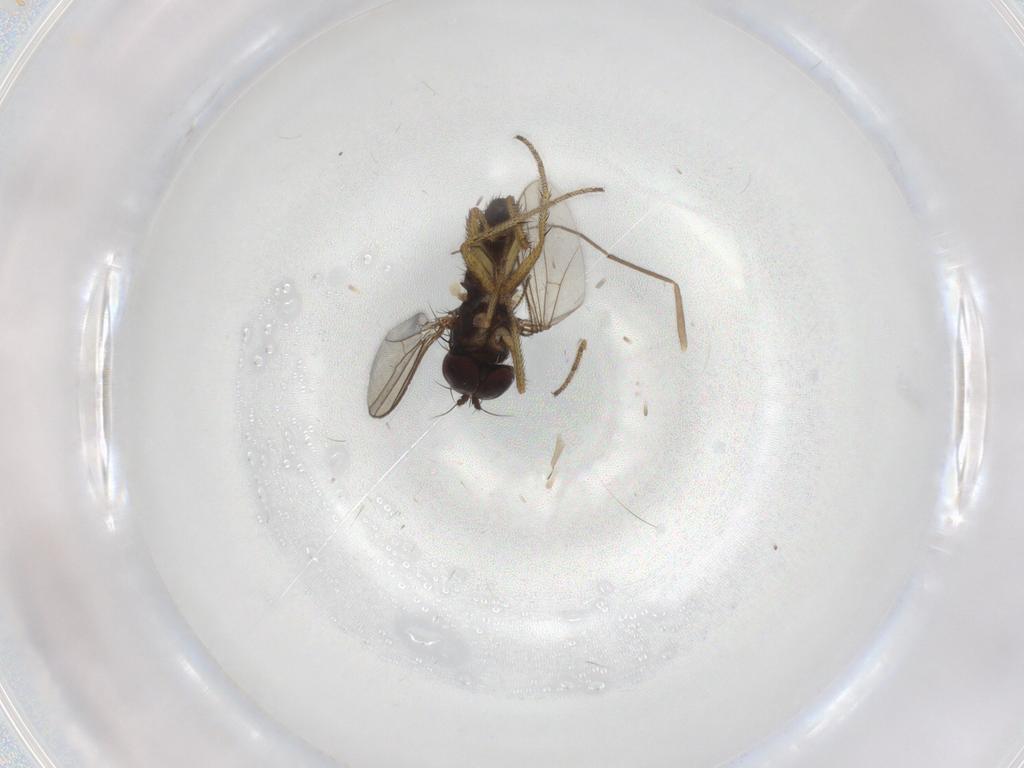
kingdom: Animalia
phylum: Arthropoda
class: Insecta
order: Diptera
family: Chironomidae
